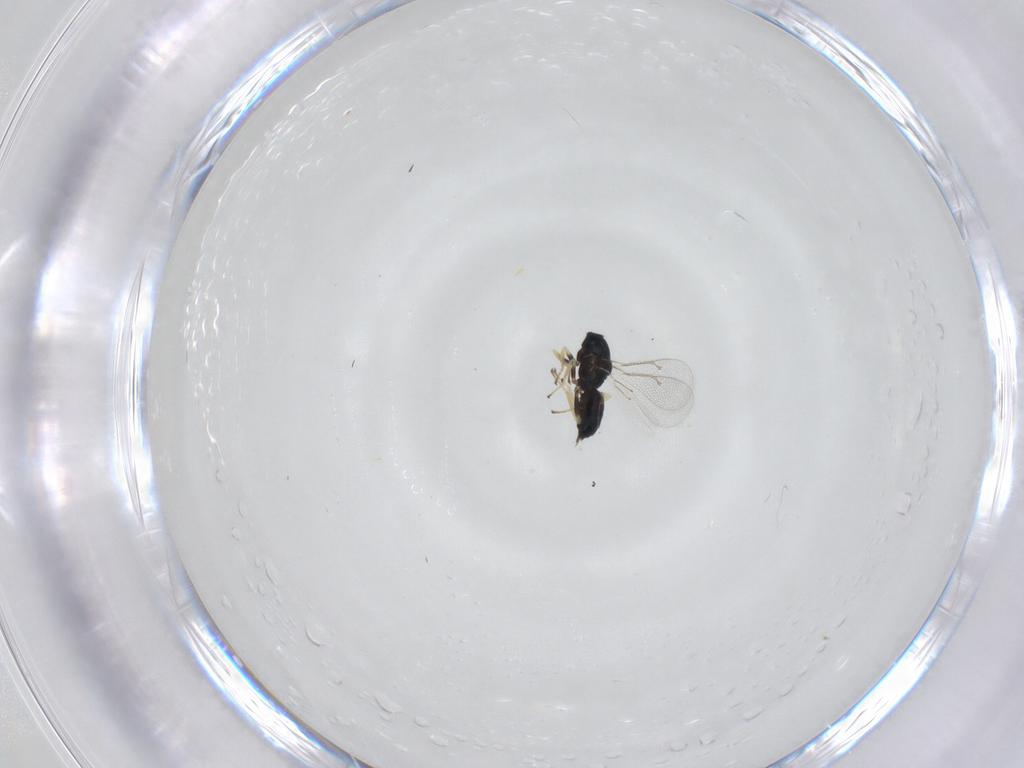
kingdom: Animalia
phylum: Arthropoda
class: Insecta
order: Hymenoptera
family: Eulophidae
